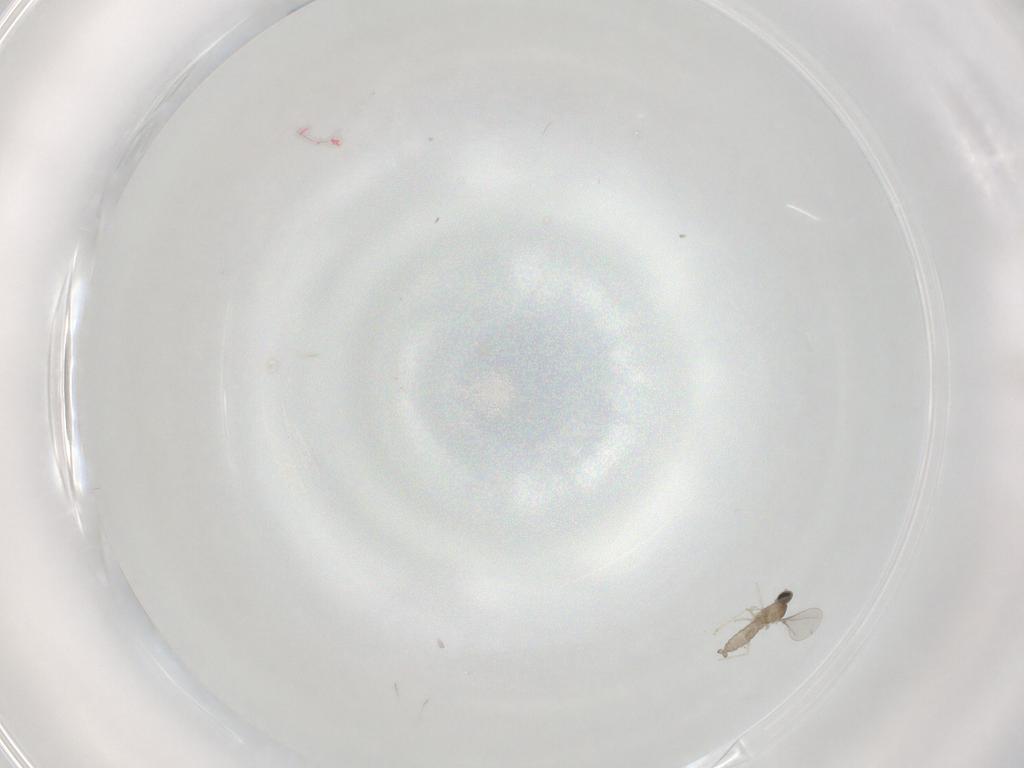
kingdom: Animalia
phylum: Arthropoda
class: Insecta
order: Diptera
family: Cecidomyiidae
